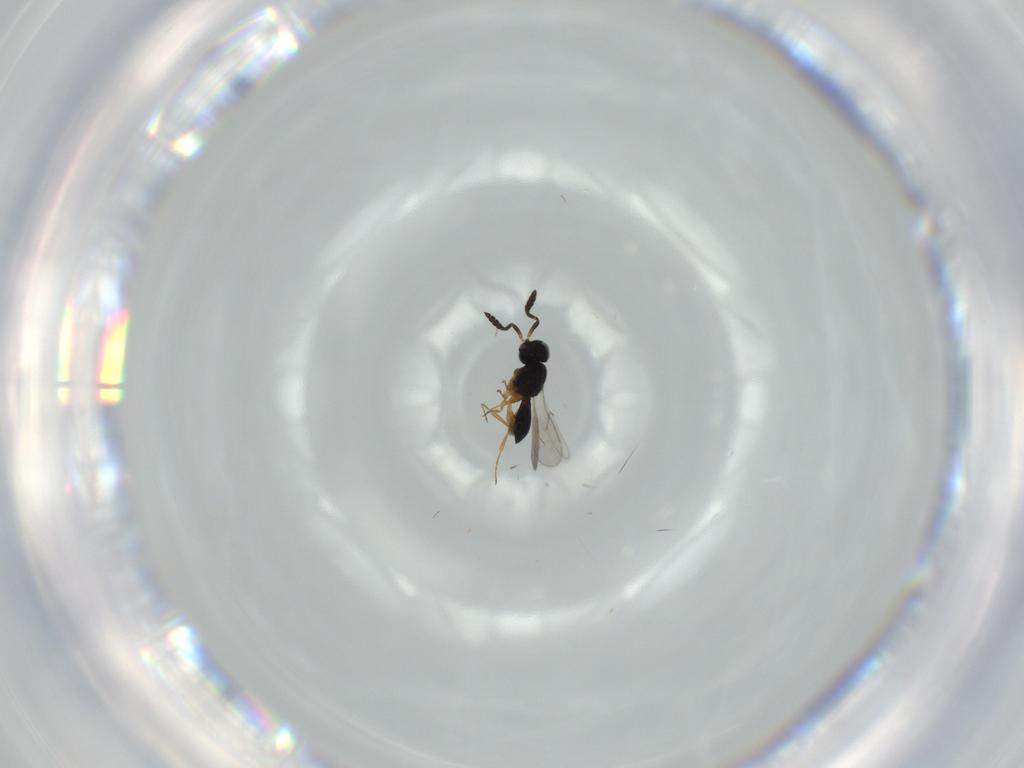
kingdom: Animalia
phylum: Arthropoda
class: Insecta
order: Hymenoptera
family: Scelionidae
